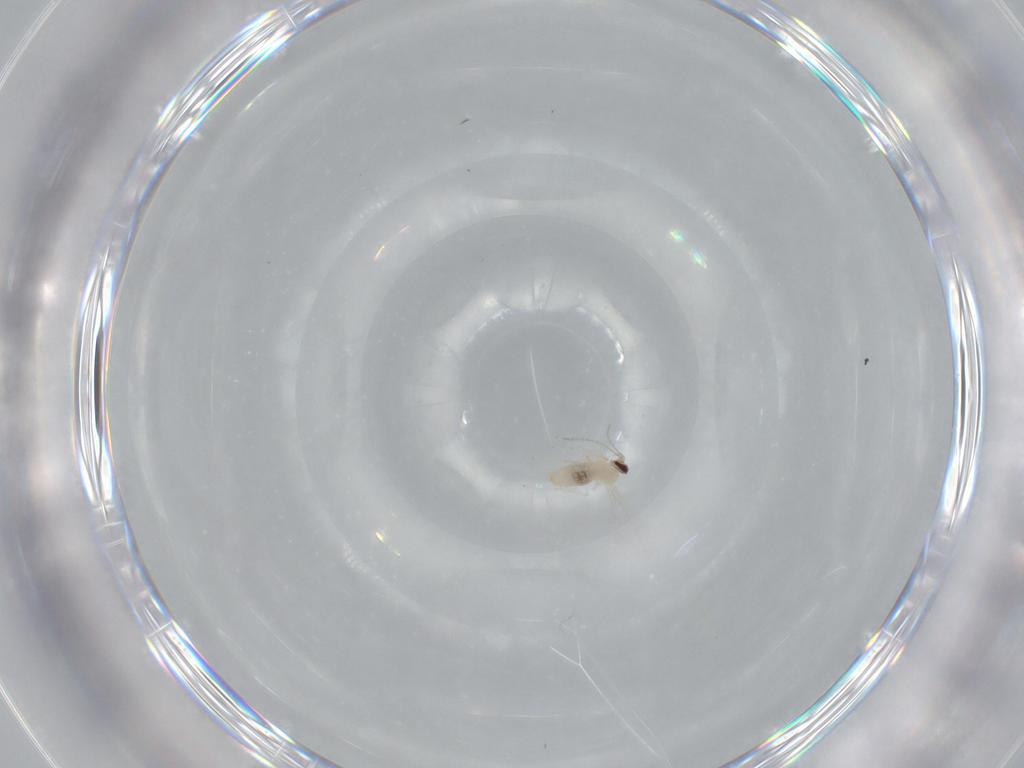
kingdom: Animalia
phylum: Arthropoda
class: Insecta
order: Diptera
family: Cecidomyiidae
